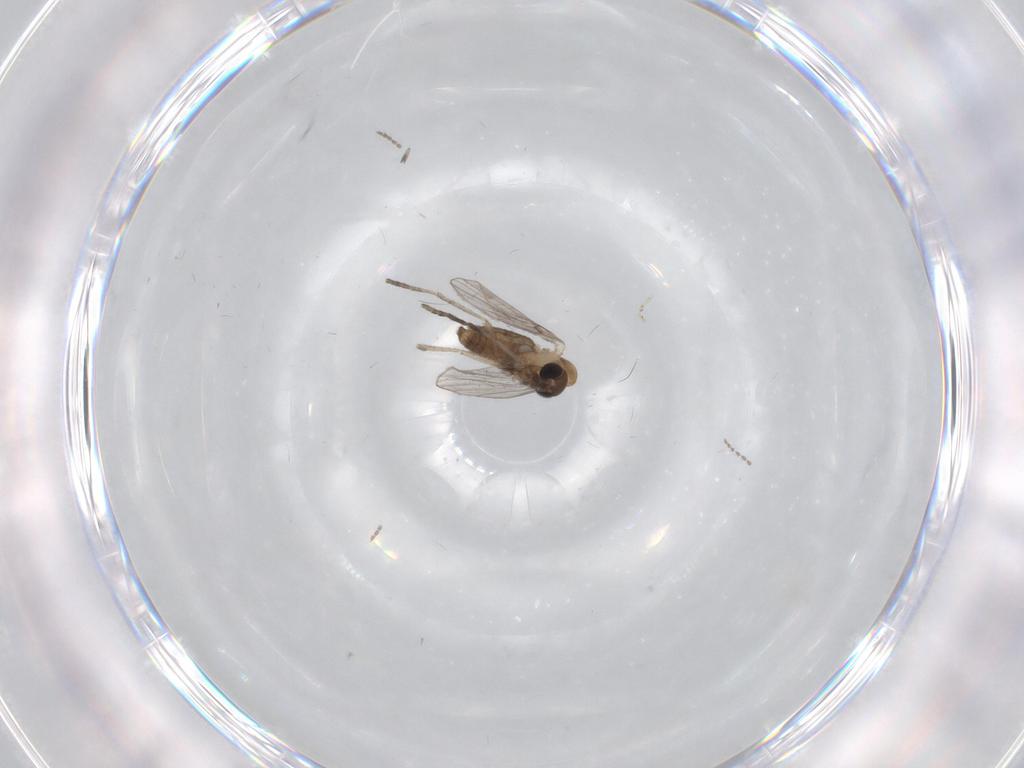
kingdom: Animalia
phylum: Arthropoda
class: Insecta
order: Diptera
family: Psychodidae
